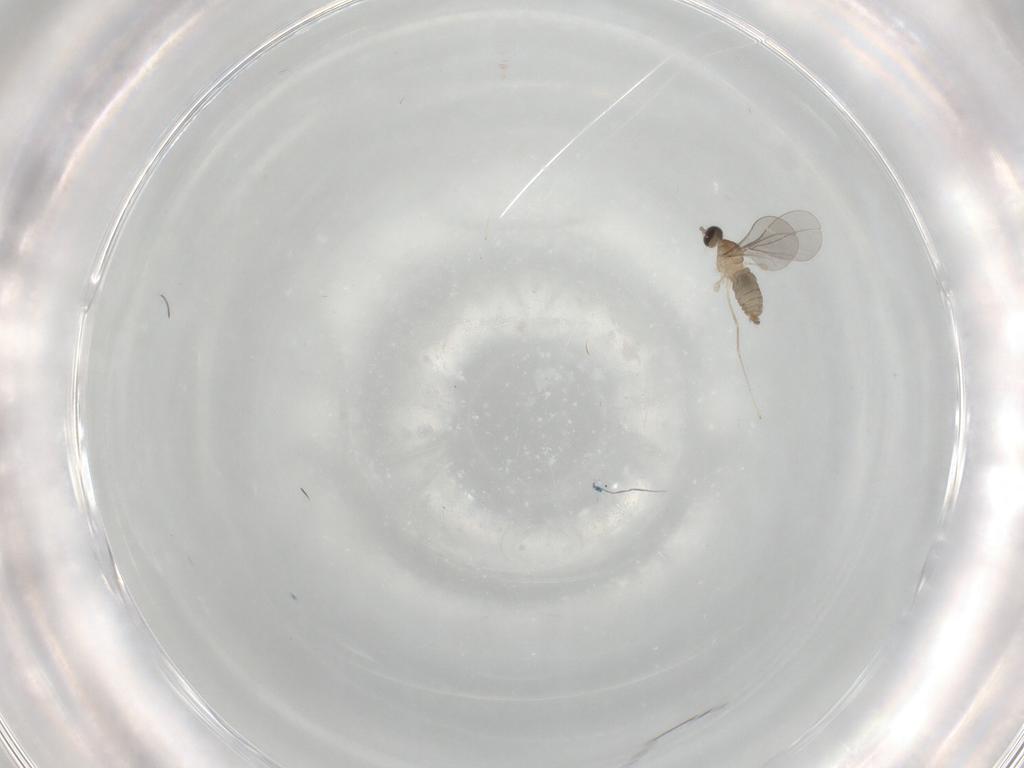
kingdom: Animalia
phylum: Arthropoda
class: Insecta
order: Diptera
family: Cecidomyiidae
